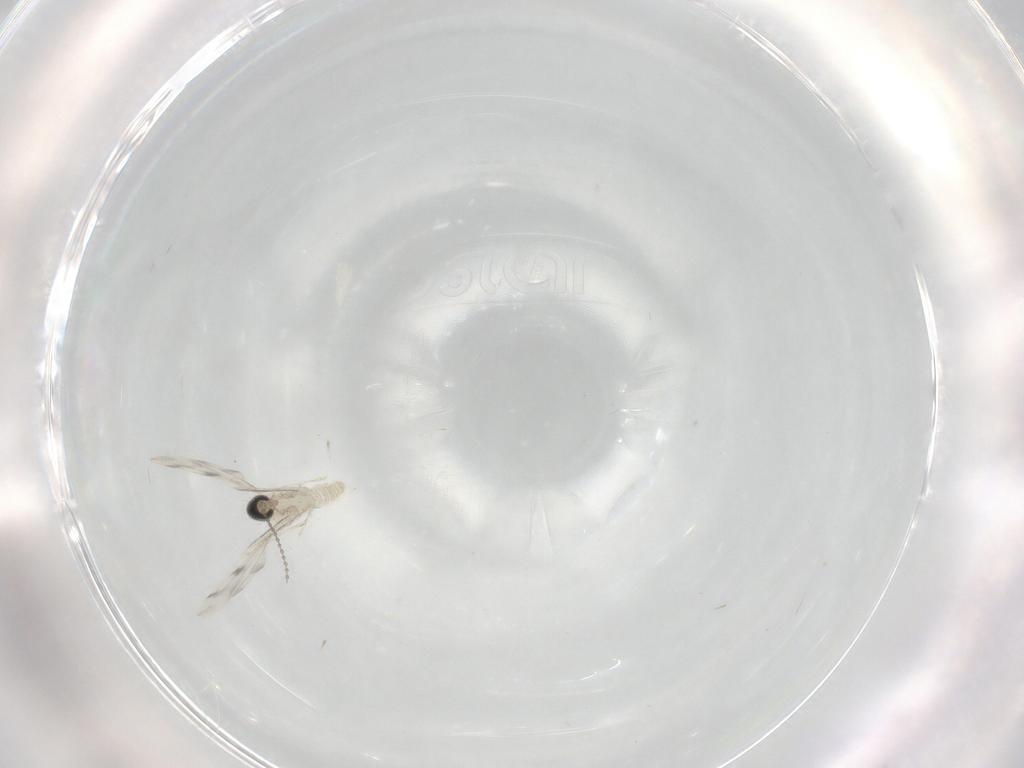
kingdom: Animalia
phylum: Arthropoda
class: Insecta
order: Diptera
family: Cecidomyiidae
